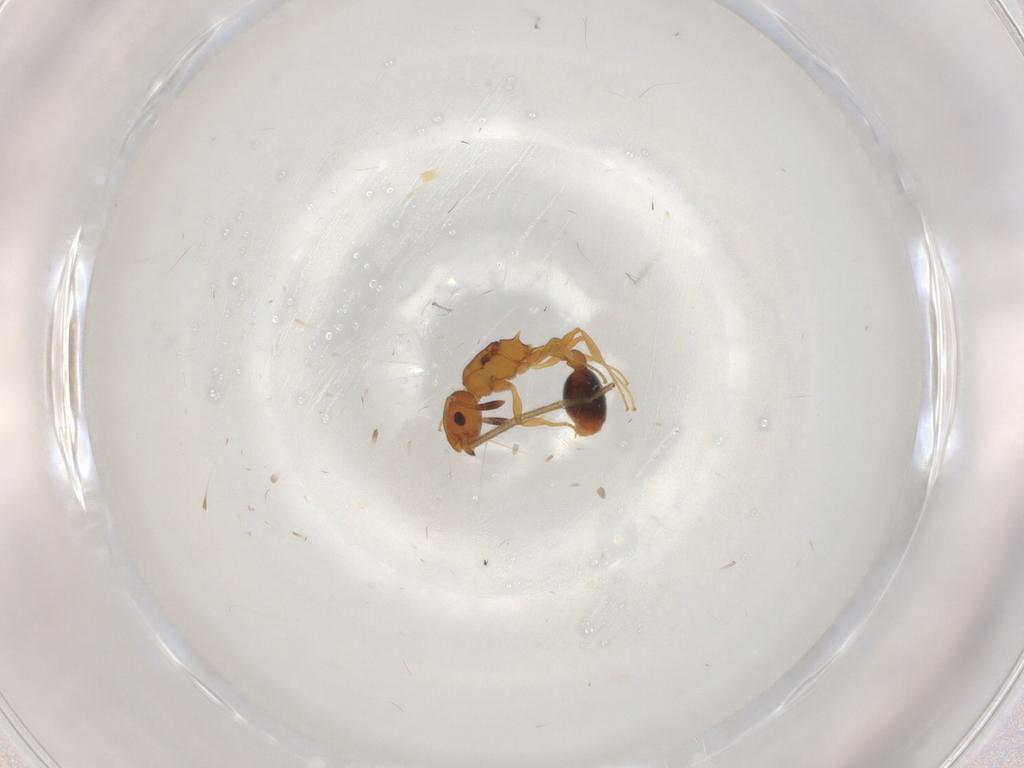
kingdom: Animalia
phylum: Arthropoda
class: Insecta
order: Hymenoptera
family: Formicidae
